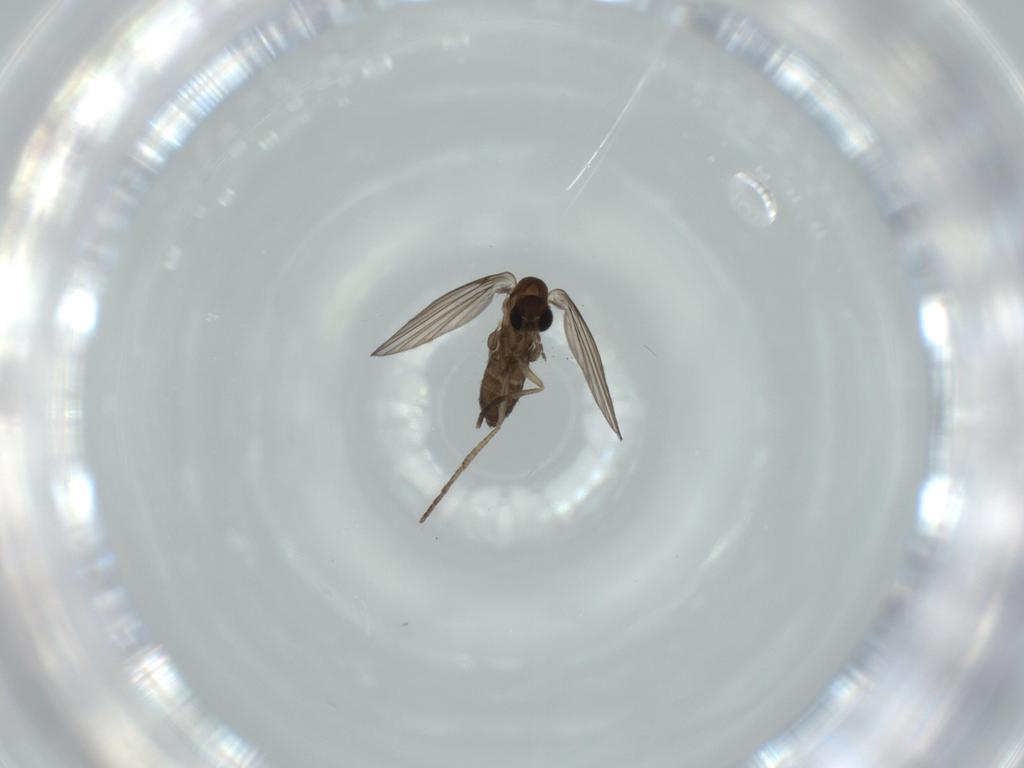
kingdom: Animalia
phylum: Arthropoda
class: Insecta
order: Diptera
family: Psychodidae
